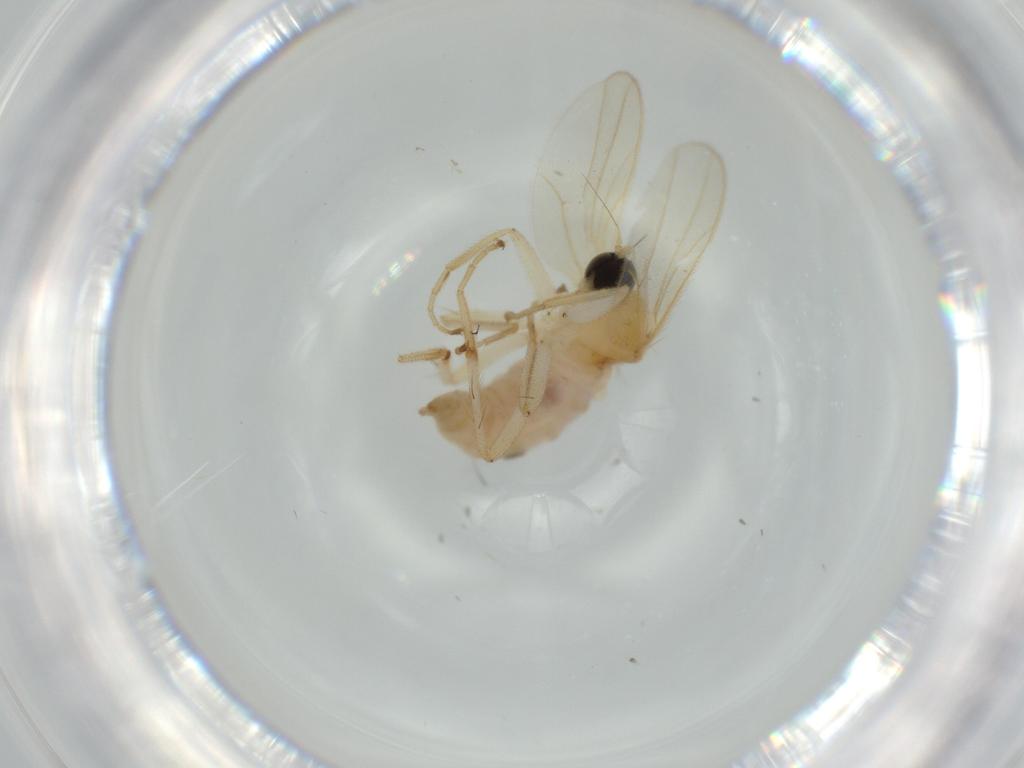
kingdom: Animalia
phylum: Arthropoda
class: Insecta
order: Diptera
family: Hybotidae
